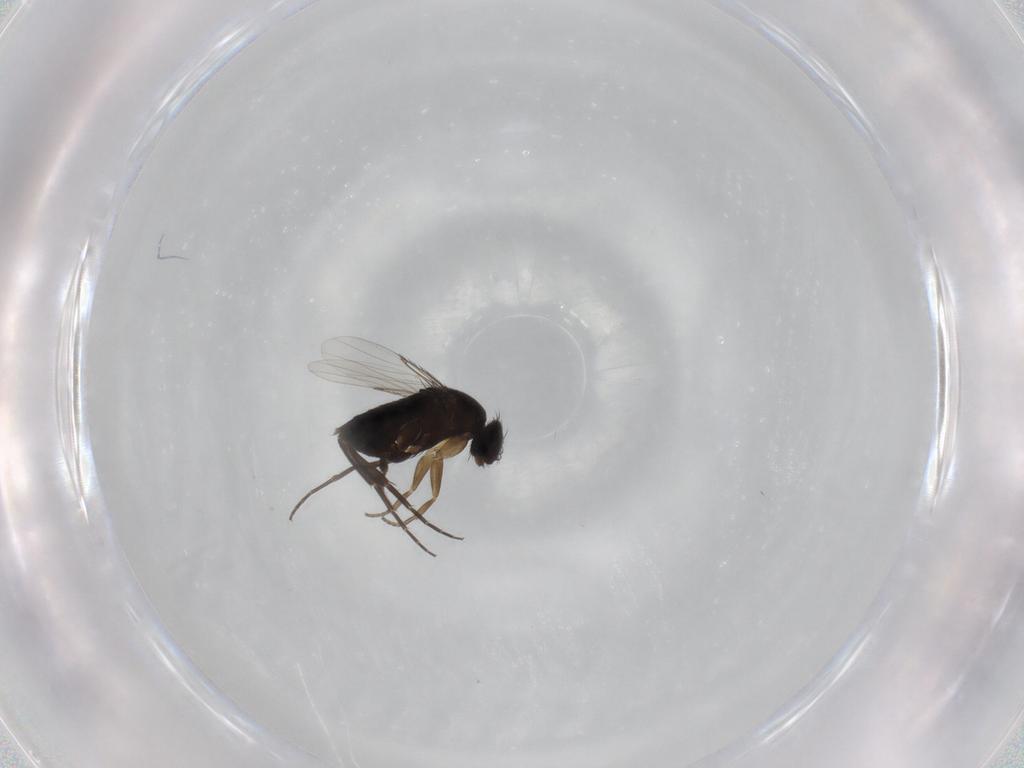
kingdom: Animalia
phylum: Arthropoda
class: Insecta
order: Diptera
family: Phoridae
